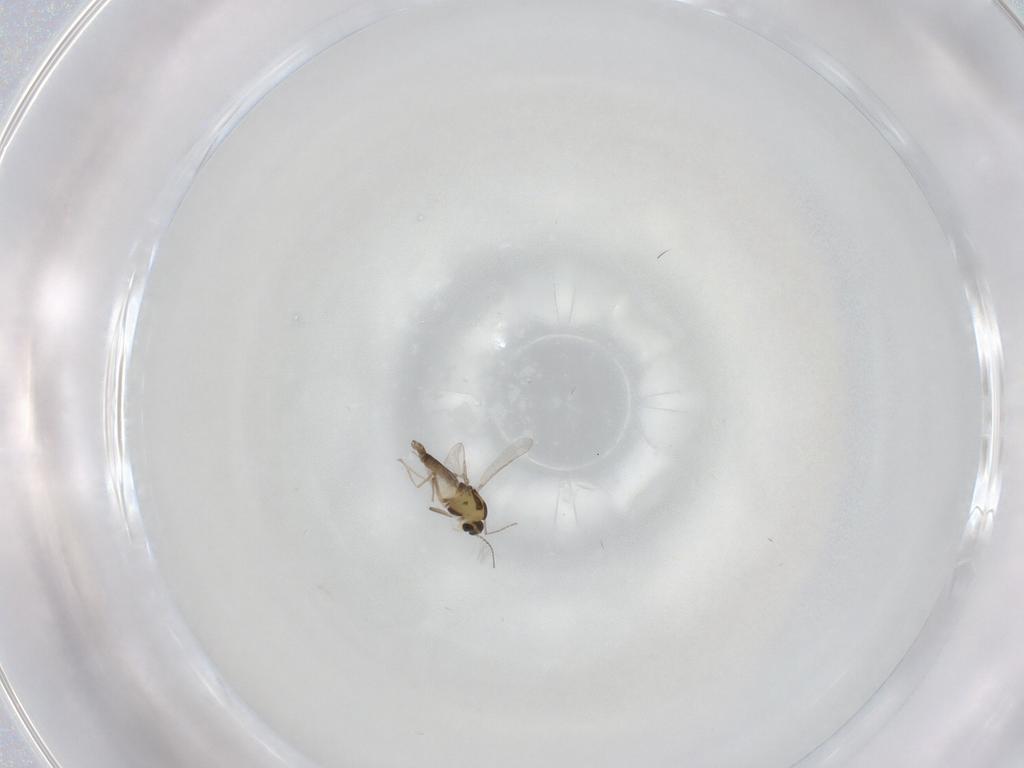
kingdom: Animalia
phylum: Arthropoda
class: Insecta
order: Diptera
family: Chironomidae
